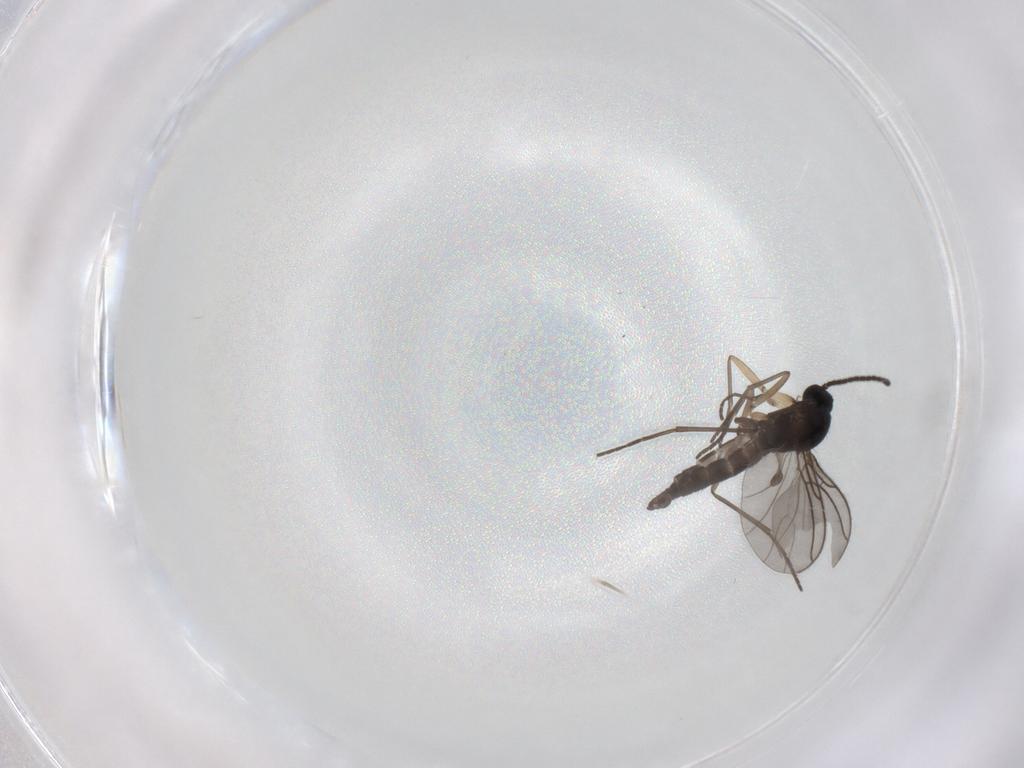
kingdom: Animalia
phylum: Arthropoda
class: Insecta
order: Diptera
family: Sciaridae
